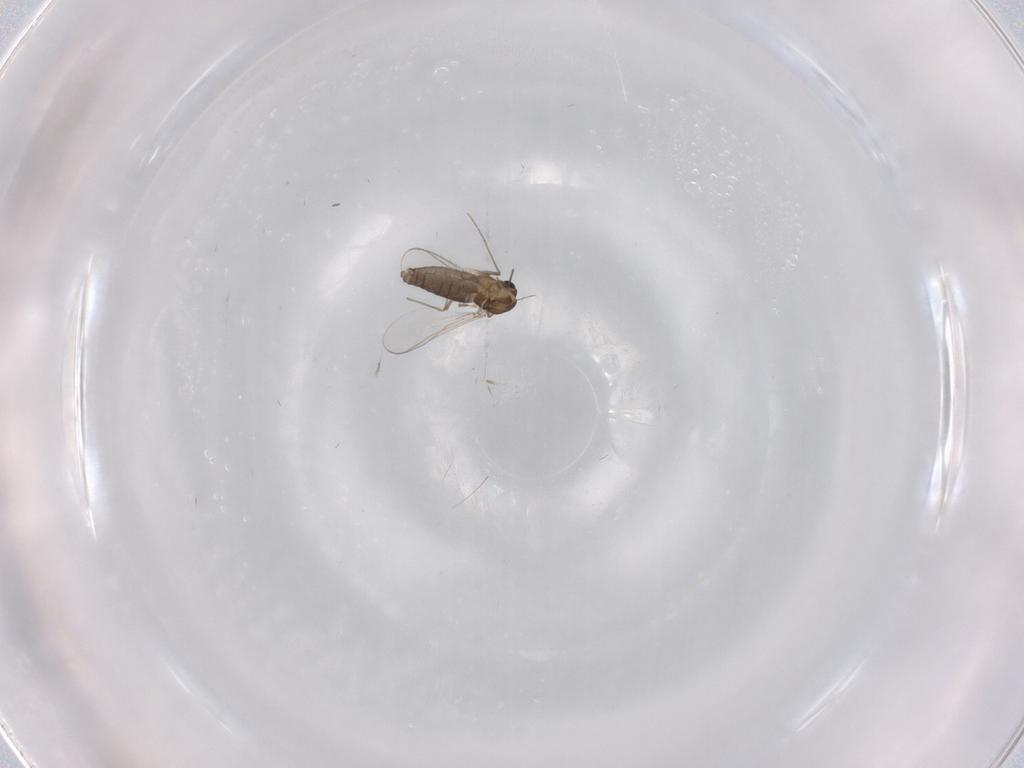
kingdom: Animalia
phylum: Arthropoda
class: Insecta
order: Diptera
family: Chironomidae
